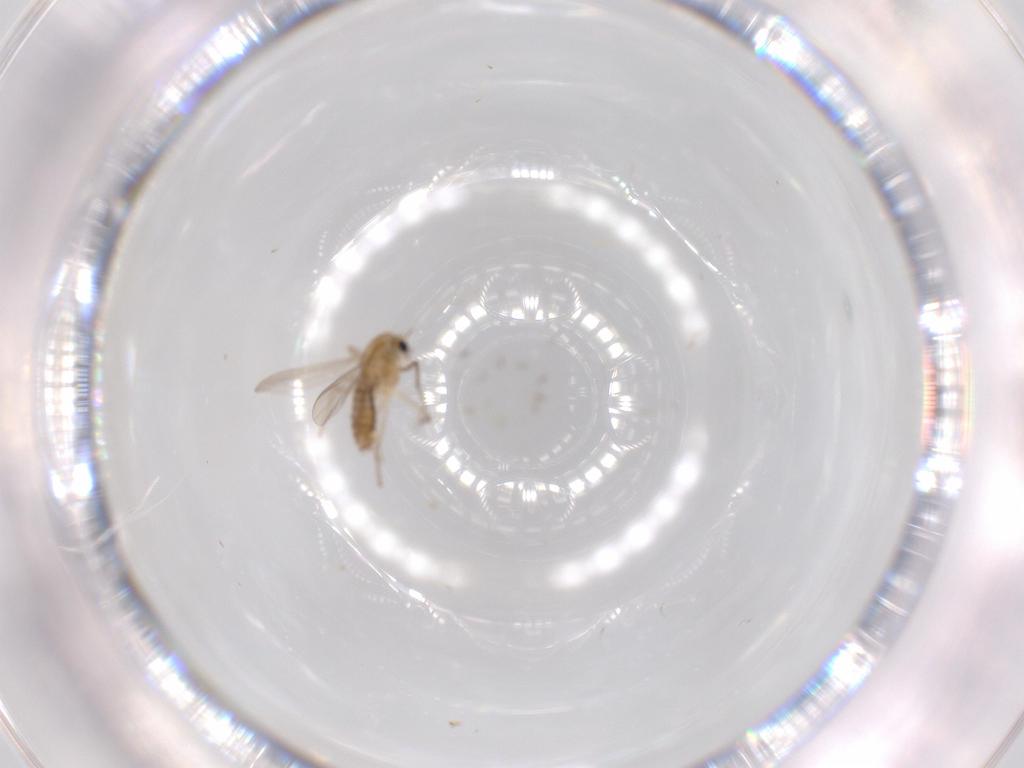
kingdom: Animalia
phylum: Arthropoda
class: Insecta
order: Diptera
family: Chironomidae
